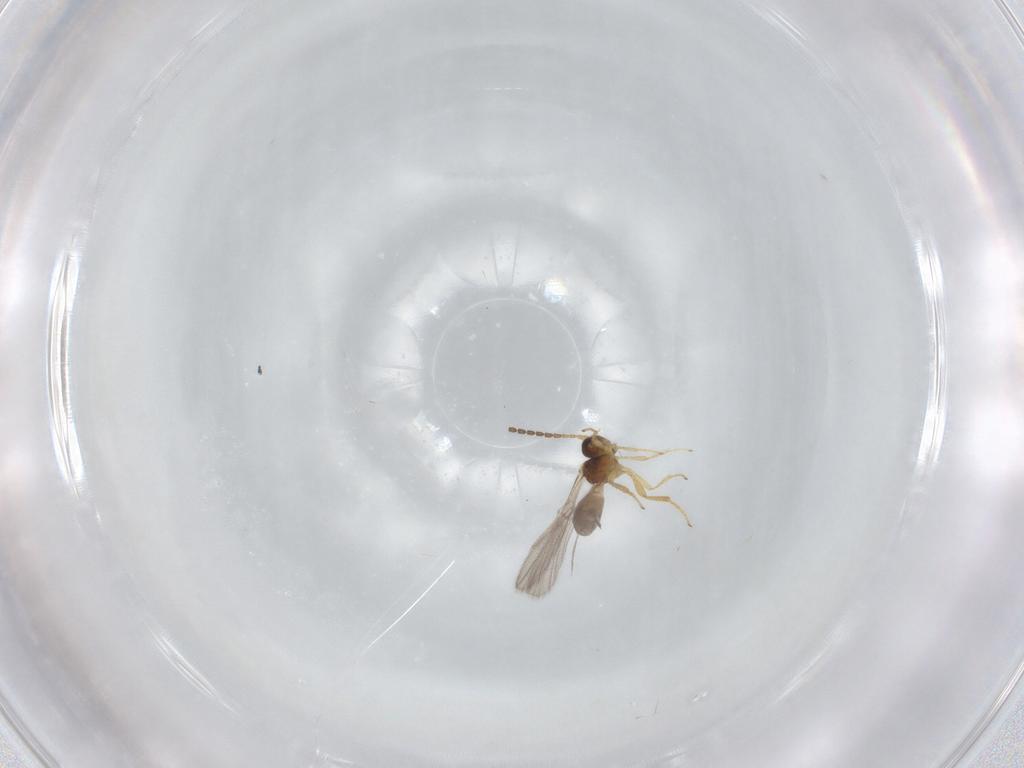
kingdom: Animalia
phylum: Arthropoda
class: Insecta
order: Hymenoptera
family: Braconidae
